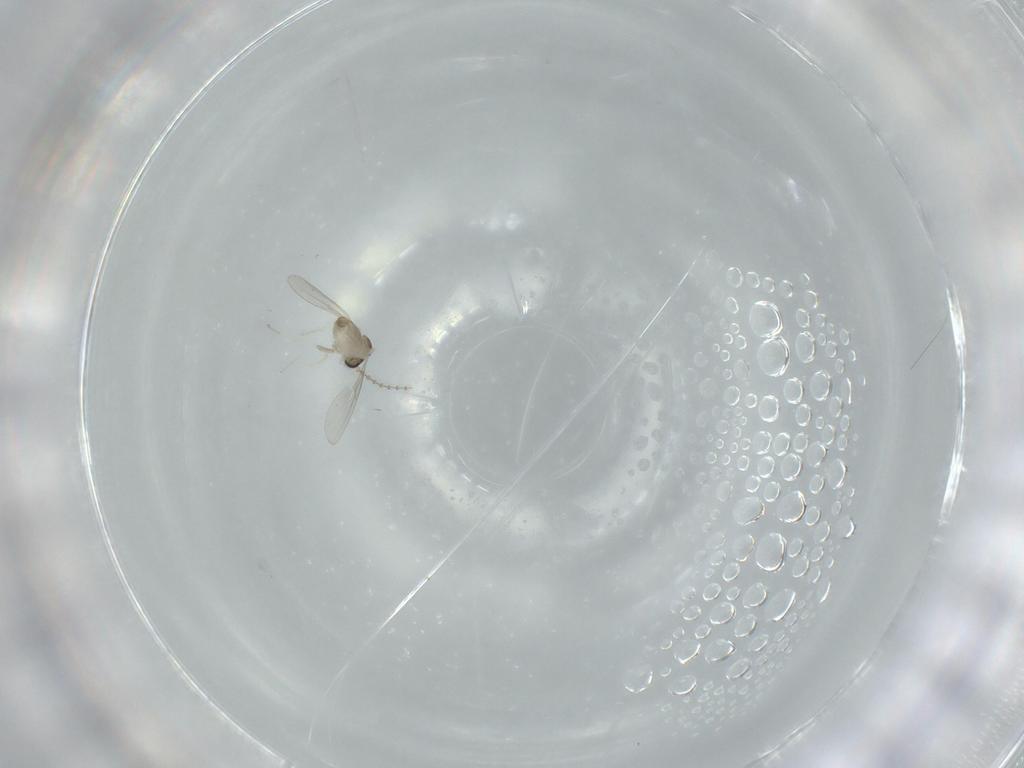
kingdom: Animalia
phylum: Arthropoda
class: Insecta
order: Diptera
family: Cecidomyiidae
